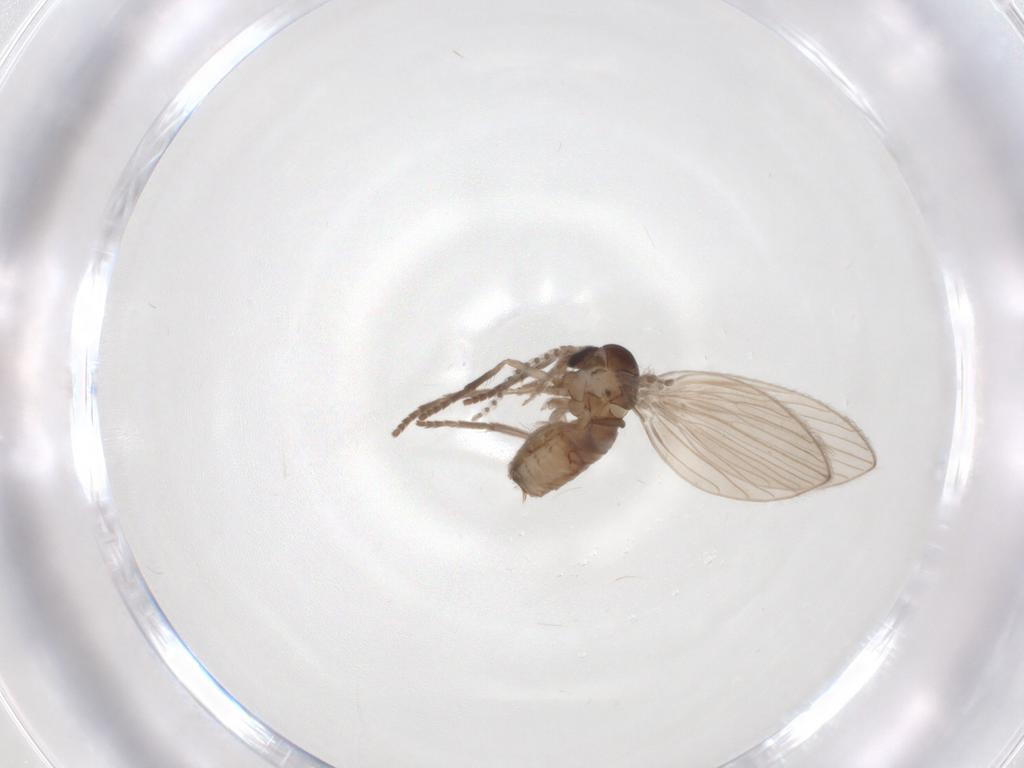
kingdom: Animalia
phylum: Arthropoda
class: Insecta
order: Diptera
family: Psychodidae
